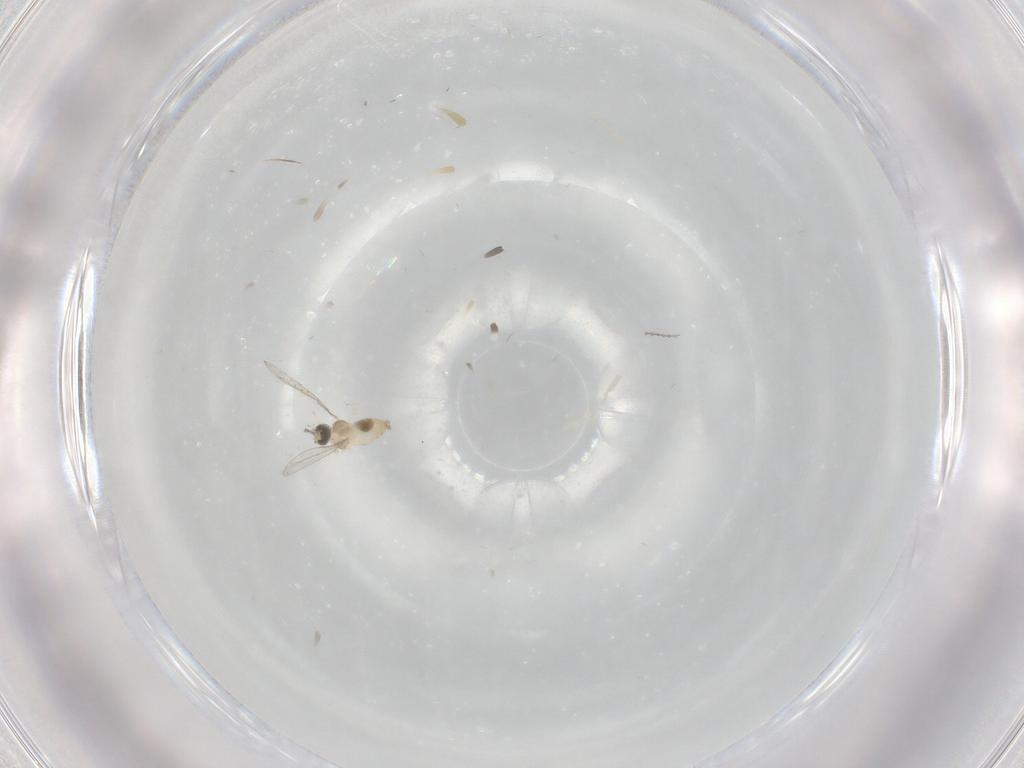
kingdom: Animalia
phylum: Arthropoda
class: Insecta
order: Diptera
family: Cecidomyiidae
